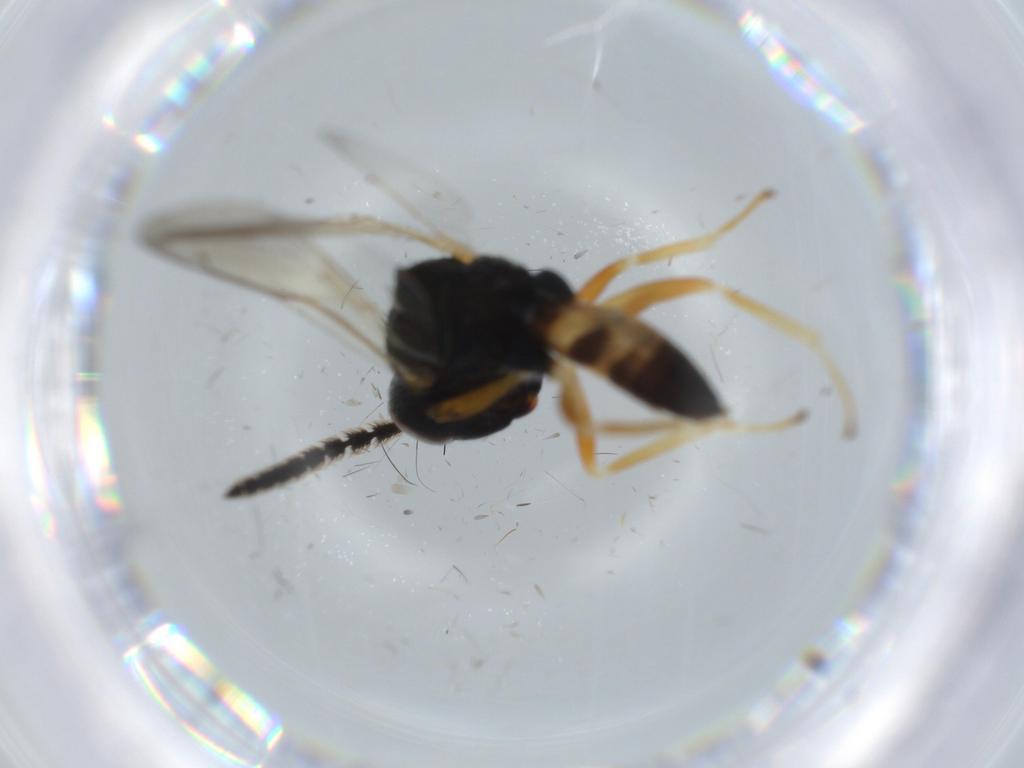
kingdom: Animalia
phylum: Arthropoda
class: Insecta
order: Hymenoptera
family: Pteromalidae
